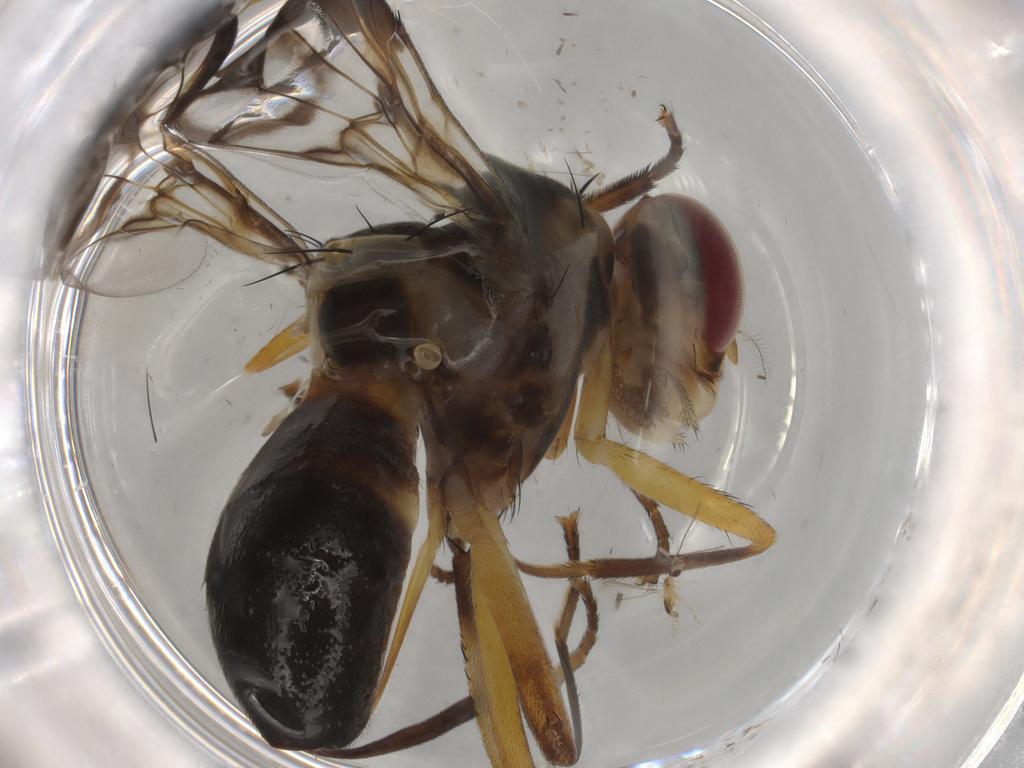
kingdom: Animalia
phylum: Arthropoda
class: Insecta
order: Diptera
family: Tephritidae
